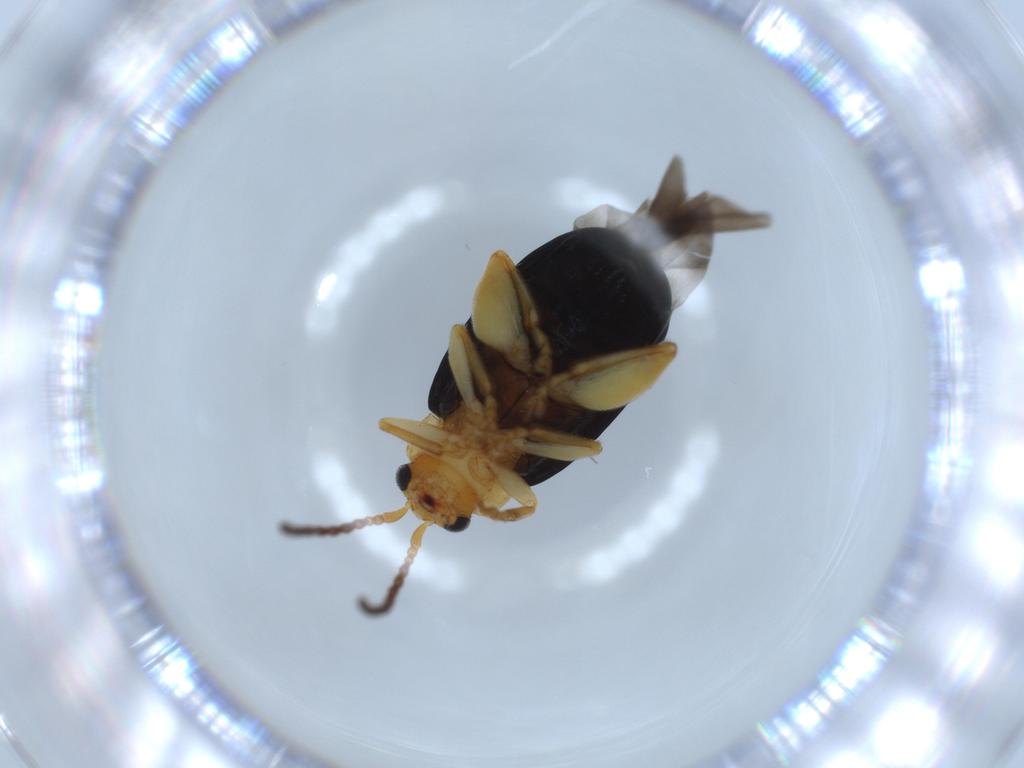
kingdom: Animalia
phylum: Arthropoda
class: Insecta
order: Coleoptera
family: Chrysomelidae
